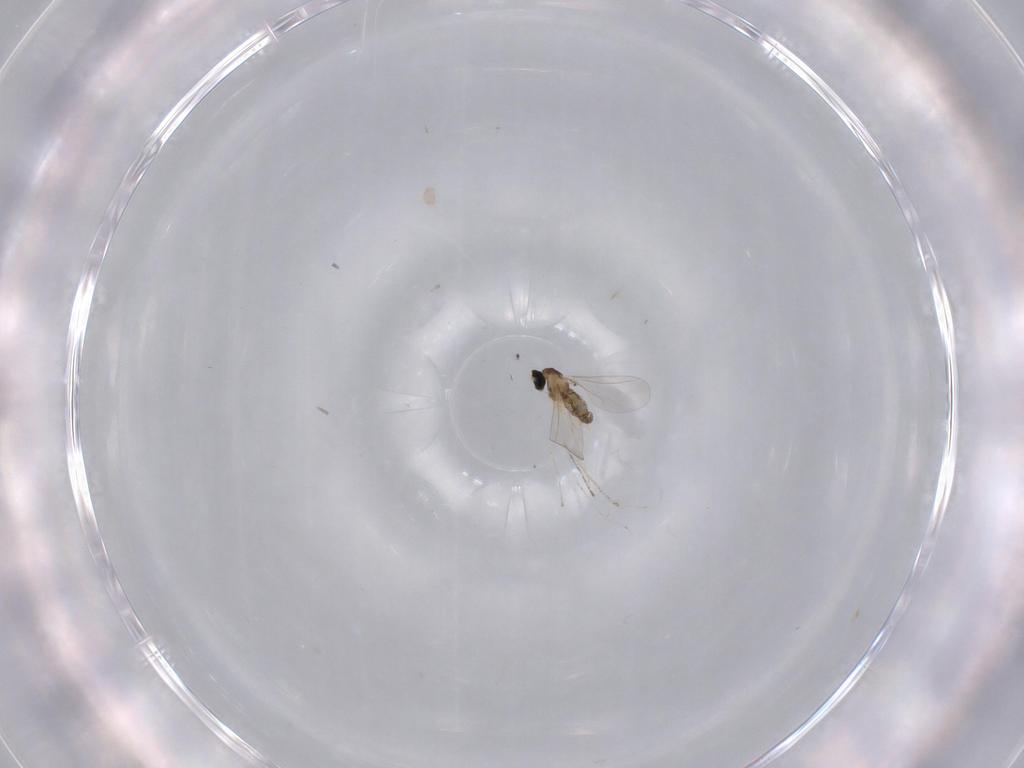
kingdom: Animalia
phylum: Arthropoda
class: Insecta
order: Diptera
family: Cecidomyiidae
